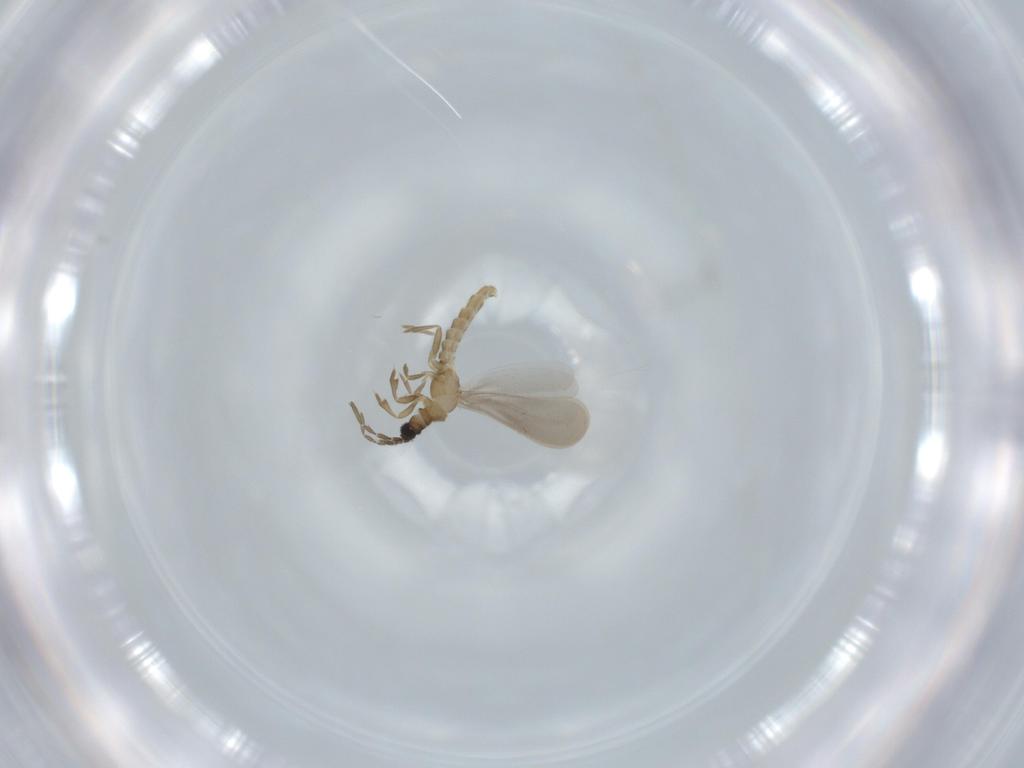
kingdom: Animalia
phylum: Arthropoda
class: Insecta
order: Hemiptera
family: Enicocephalidae
